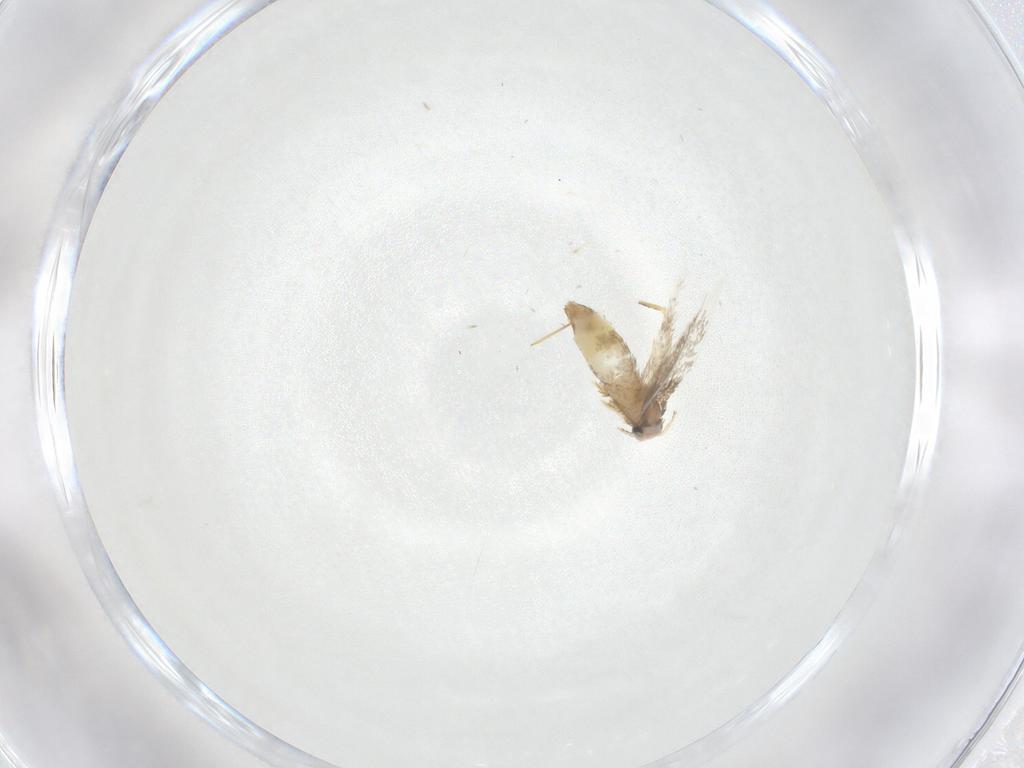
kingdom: Animalia
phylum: Arthropoda
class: Insecta
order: Lepidoptera
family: Nepticulidae
